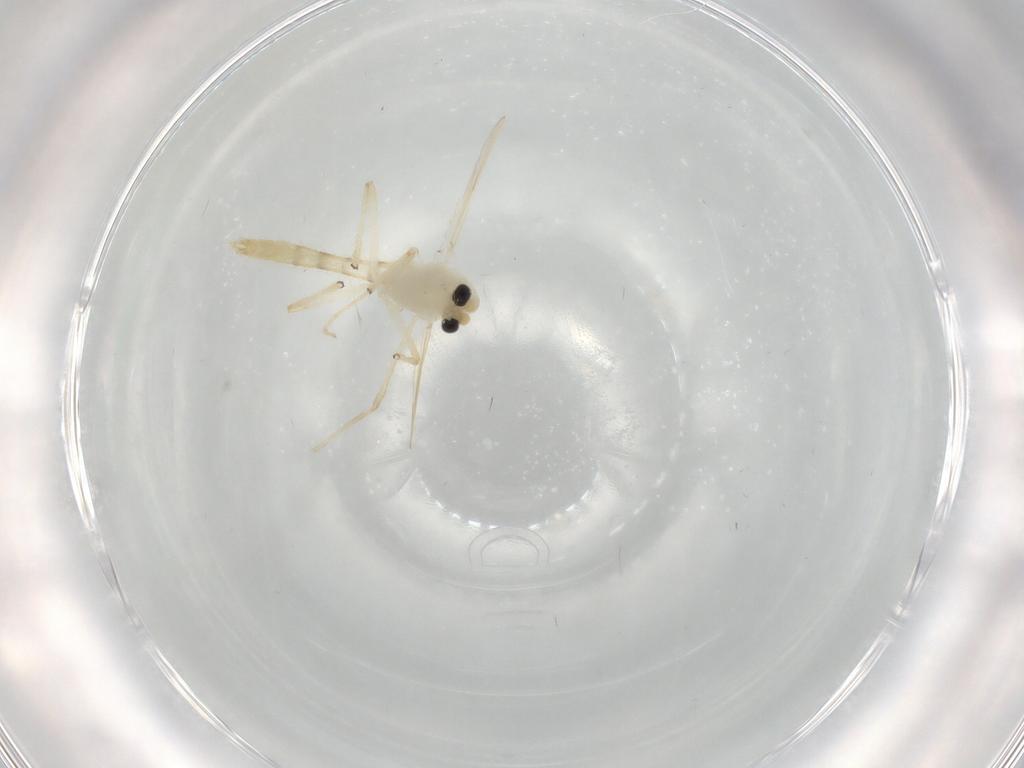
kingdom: Animalia
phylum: Arthropoda
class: Insecta
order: Diptera
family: Chironomidae
